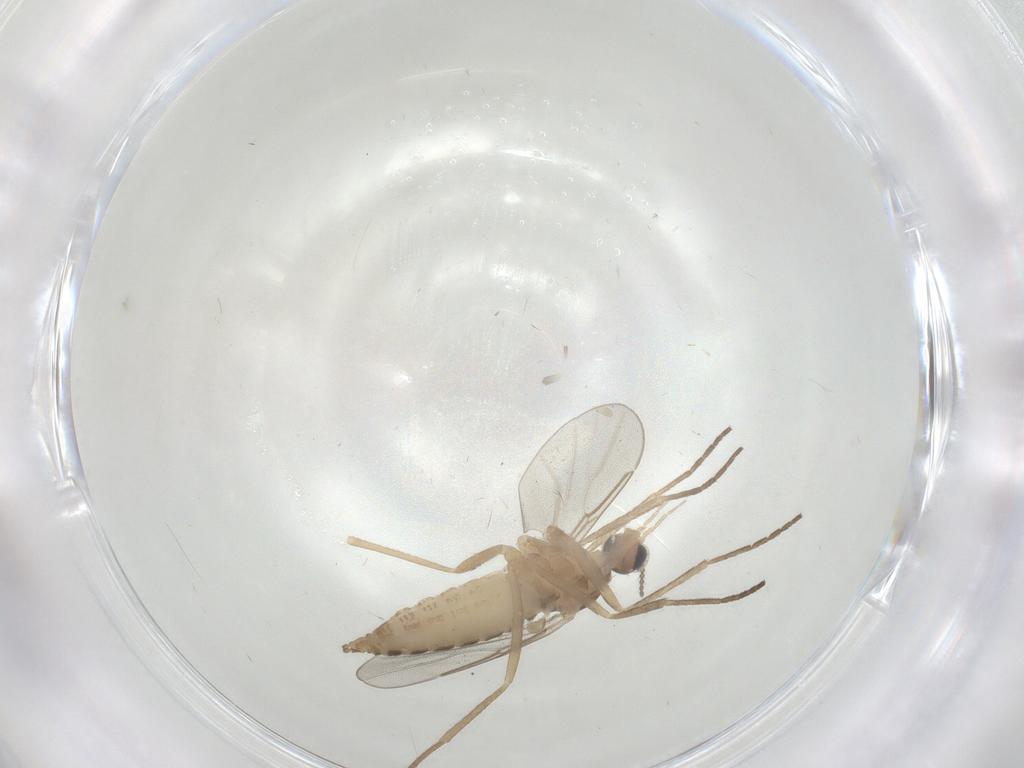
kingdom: Animalia
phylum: Arthropoda
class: Insecta
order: Diptera
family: Cecidomyiidae
